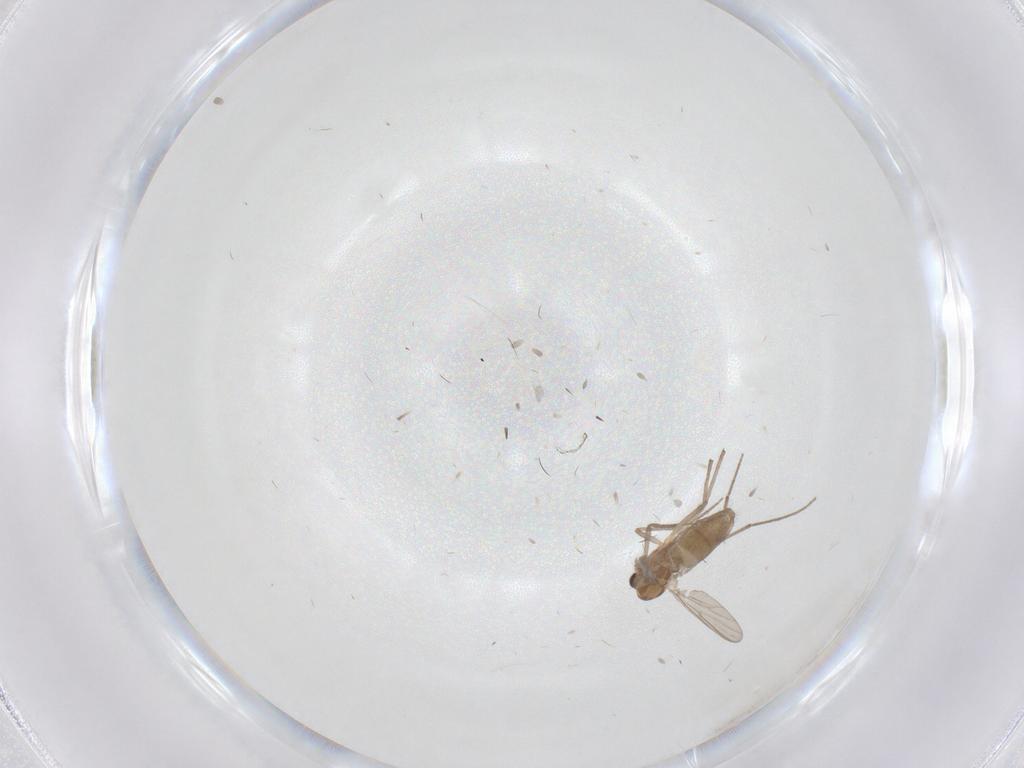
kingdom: Animalia
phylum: Arthropoda
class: Insecta
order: Diptera
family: Chironomidae
